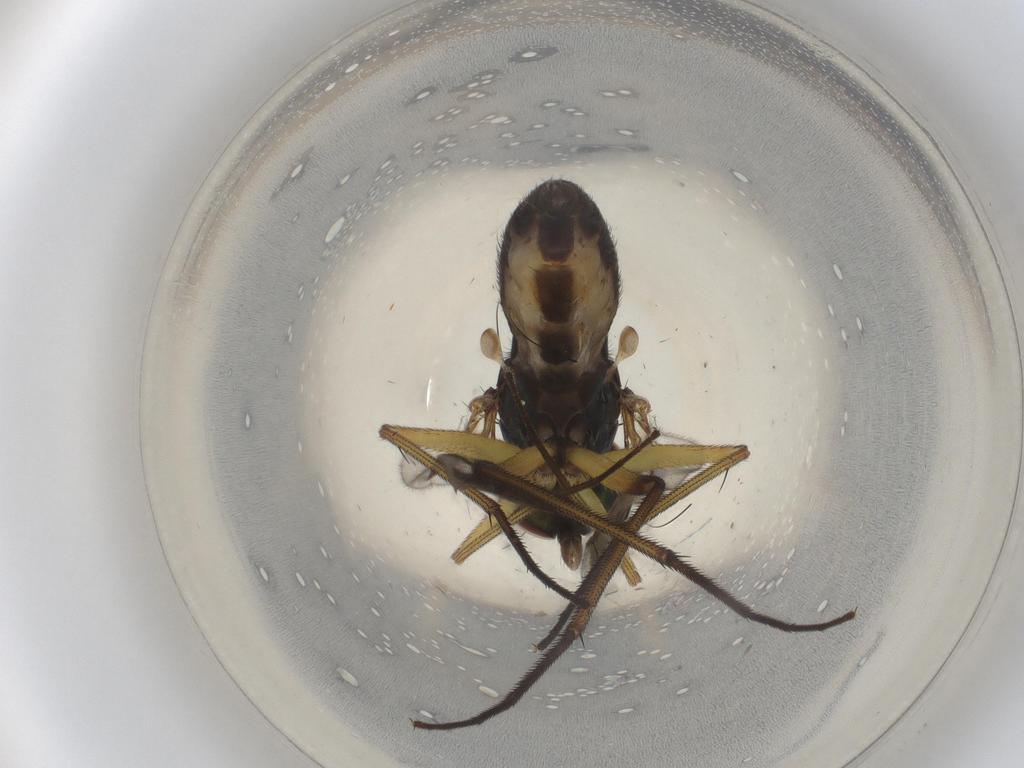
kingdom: Animalia
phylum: Arthropoda
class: Insecta
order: Diptera
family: Dolichopodidae
